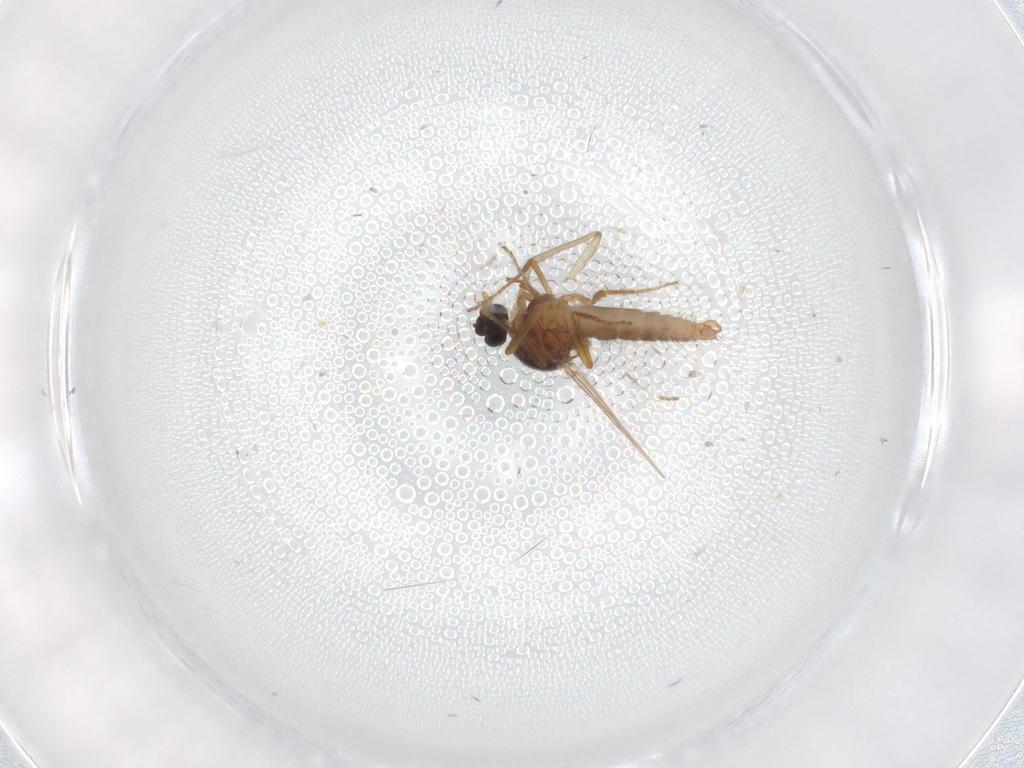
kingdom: Animalia
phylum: Arthropoda
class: Insecta
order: Diptera
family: Ceratopogonidae
